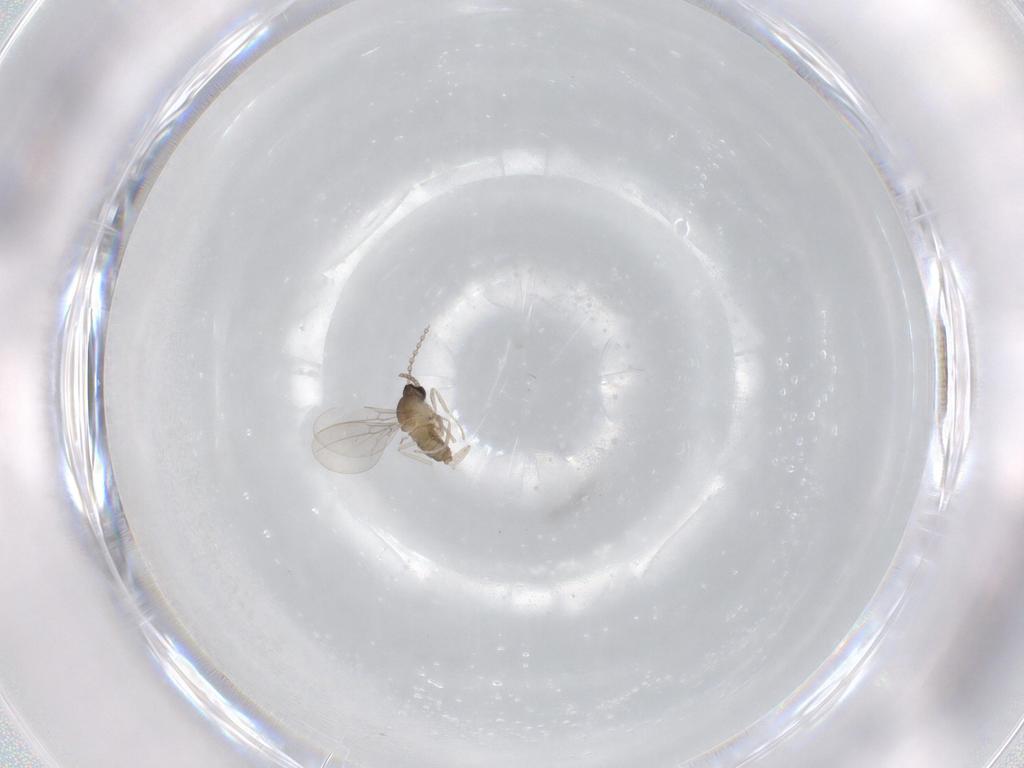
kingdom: Animalia
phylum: Arthropoda
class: Insecta
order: Diptera
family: Cecidomyiidae
